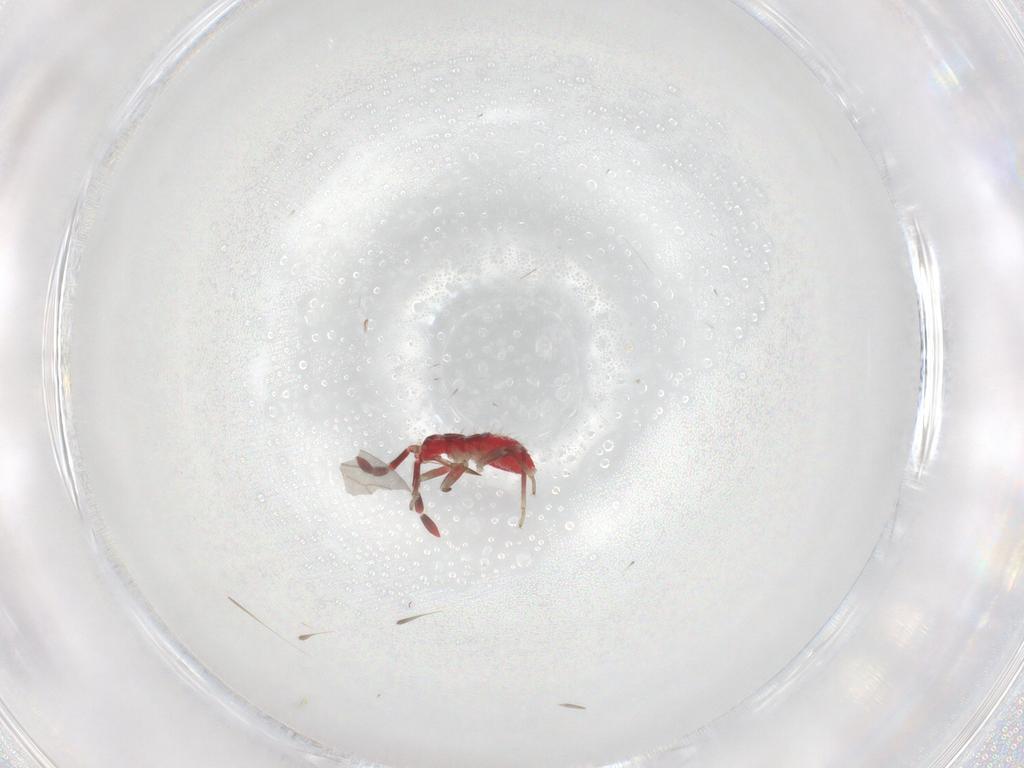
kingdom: Animalia
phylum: Arthropoda
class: Insecta
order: Hemiptera
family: Miridae
